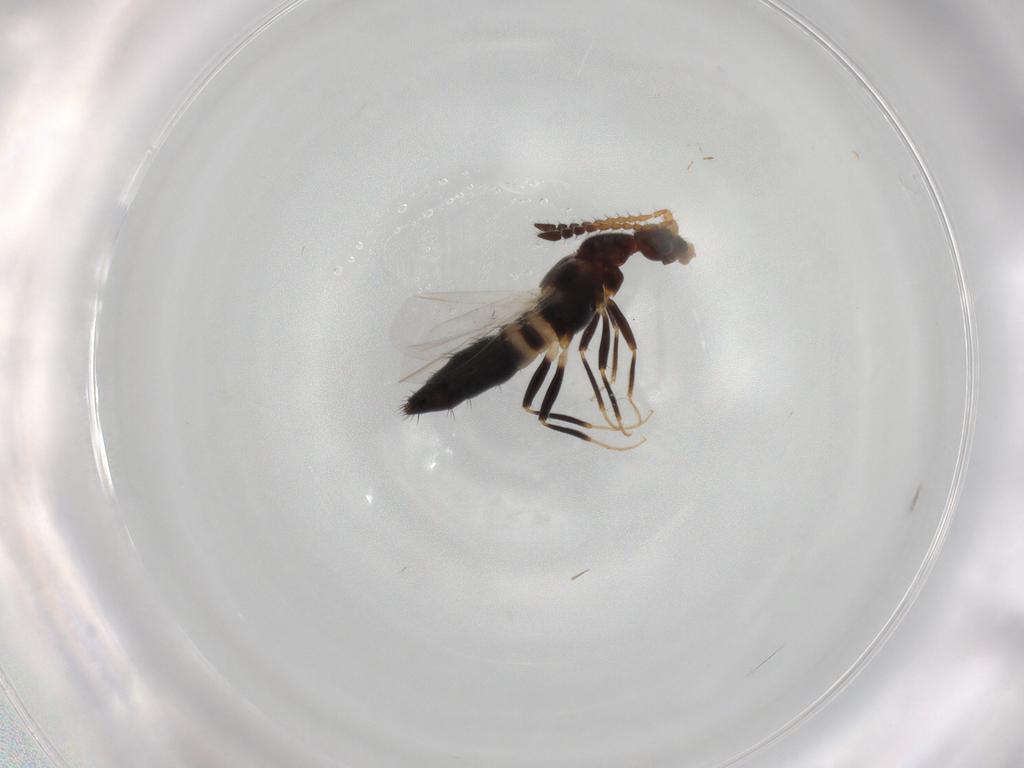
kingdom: Animalia
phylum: Arthropoda
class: Insecta
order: Coleoptera
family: Staphylinidae
